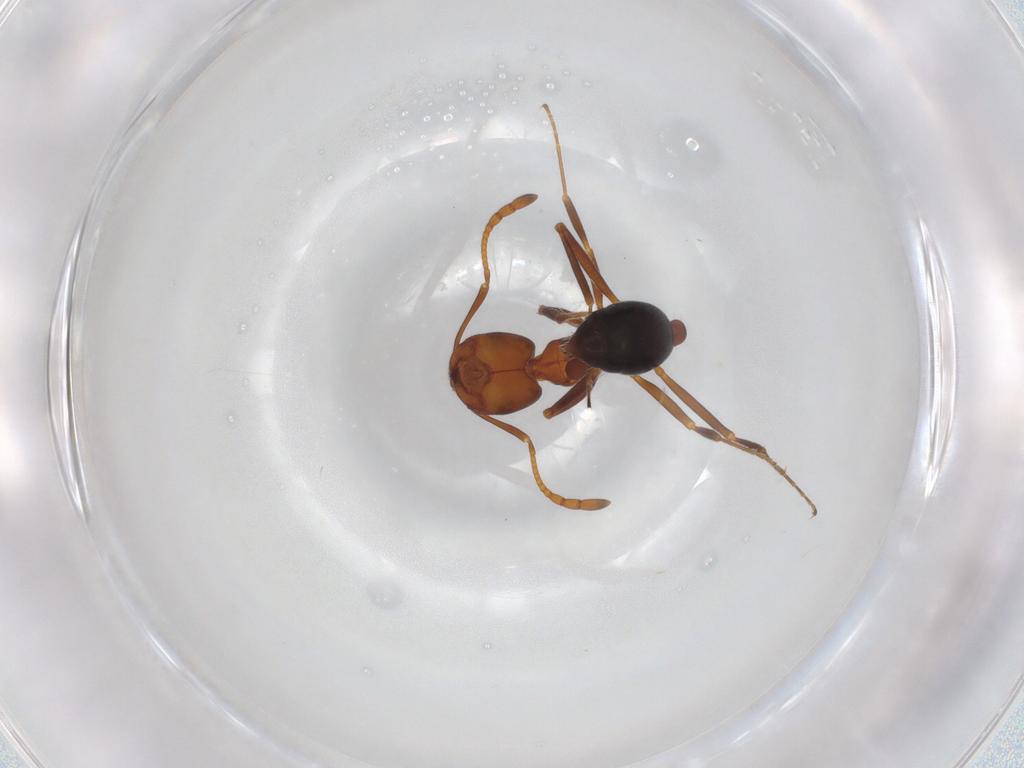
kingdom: Animalia
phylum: Arthropoda
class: Insecta
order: Hymenoptera
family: Formicidae
